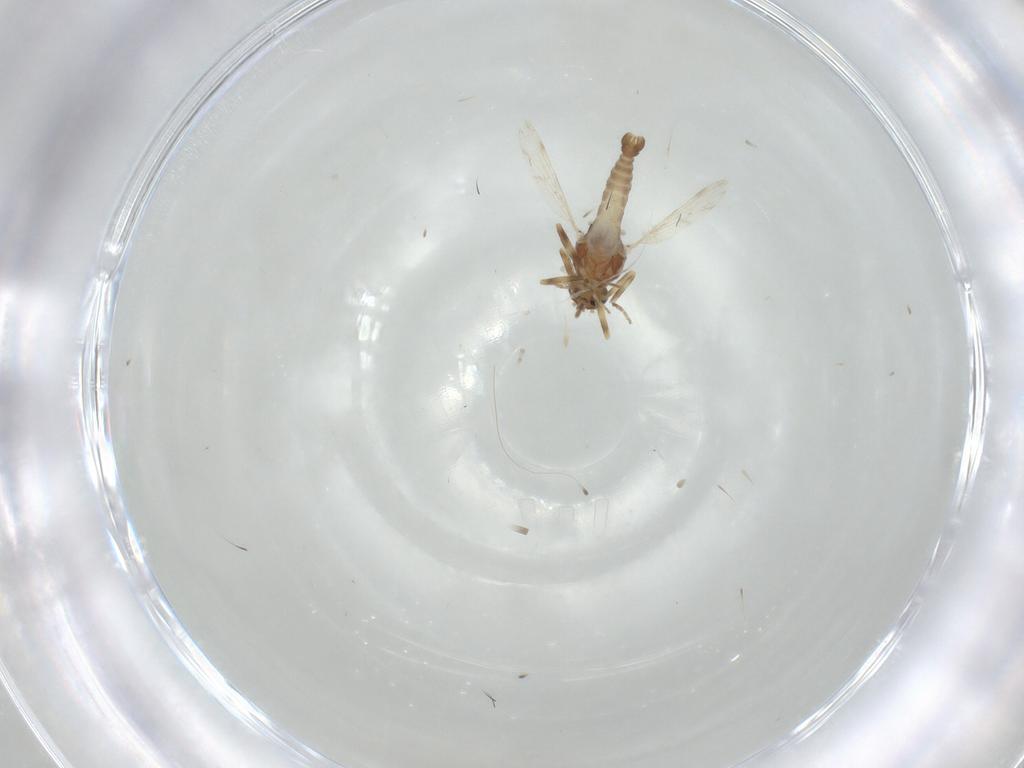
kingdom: Animalia
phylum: Arthropoda
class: Insecta
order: Diptera
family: Ceratopogonidae
